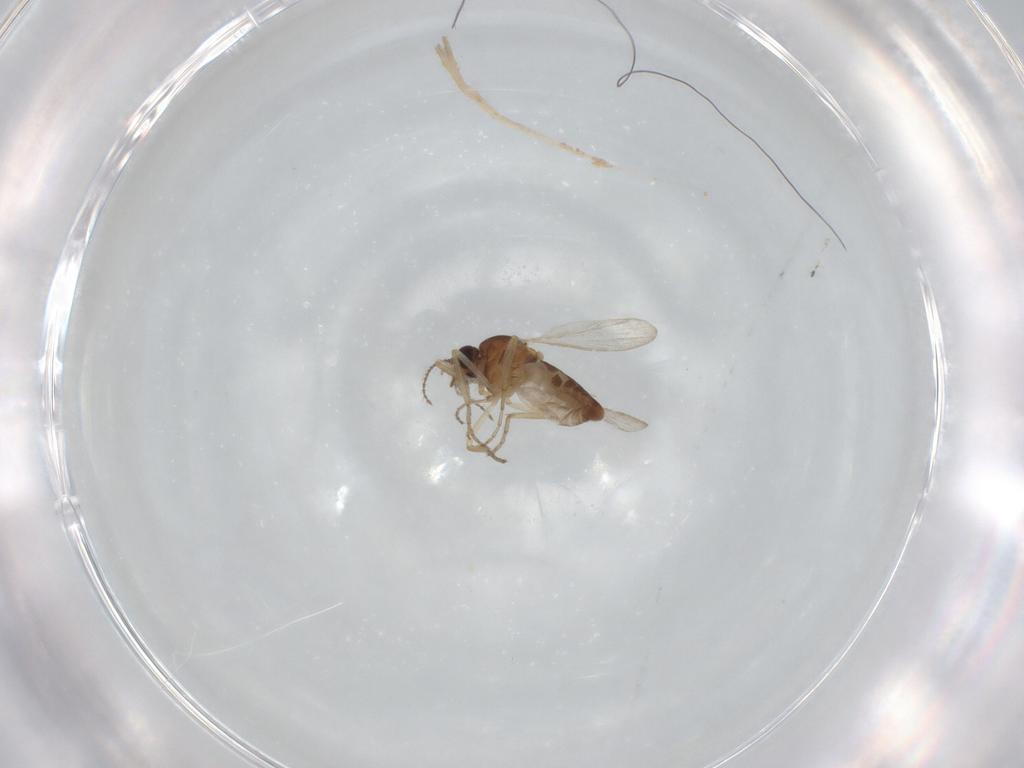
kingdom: Animalia
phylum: Arthropoda
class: Insecta
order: Diptera
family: Ceratopogonidae
